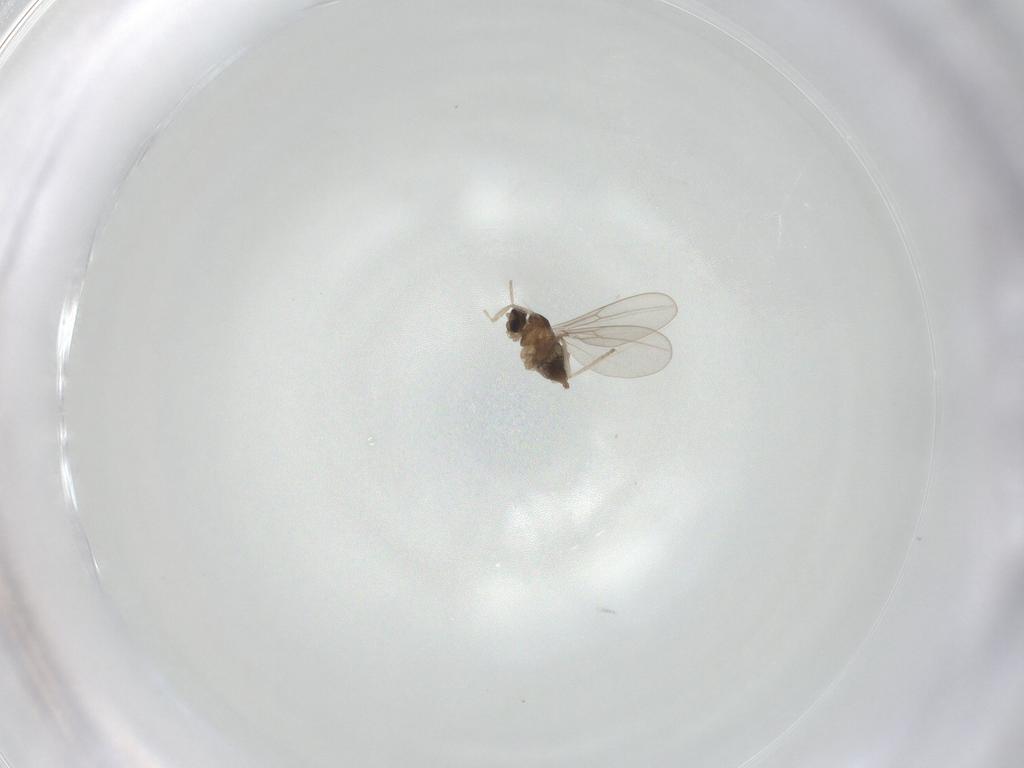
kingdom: Animalia
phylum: Arthropoda
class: Insecta
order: Diptera
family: Cecidomyiidae
